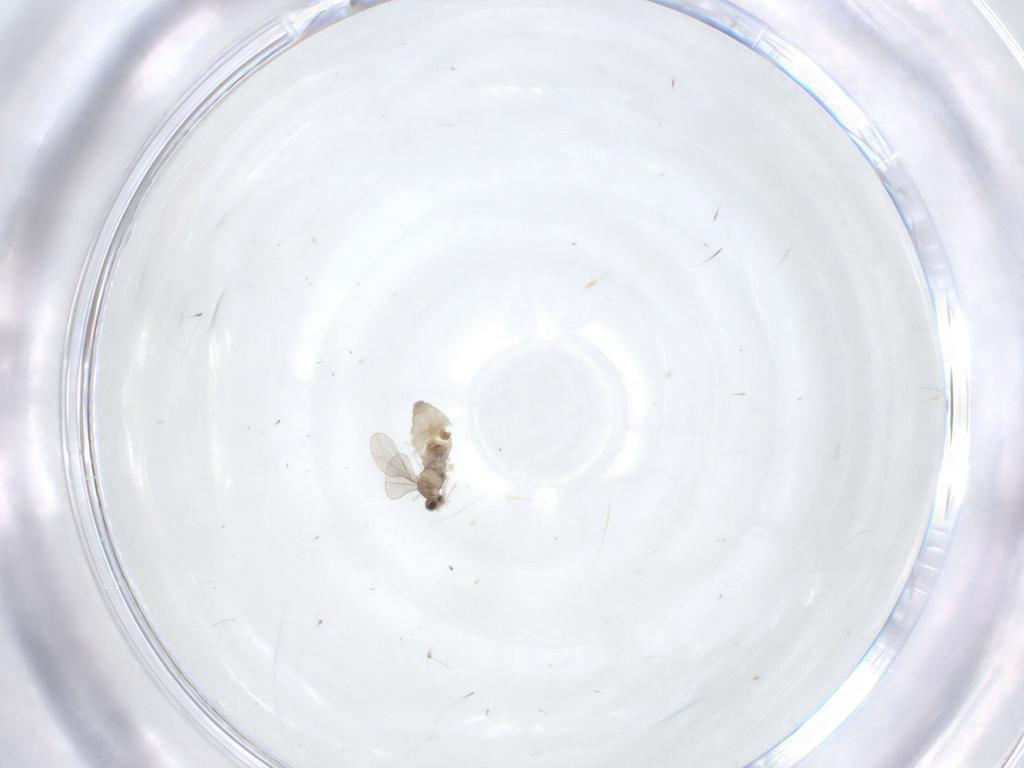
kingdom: Animalia
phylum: Arthropoda
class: Insecta
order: Diptera
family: Cecidomyiidae
